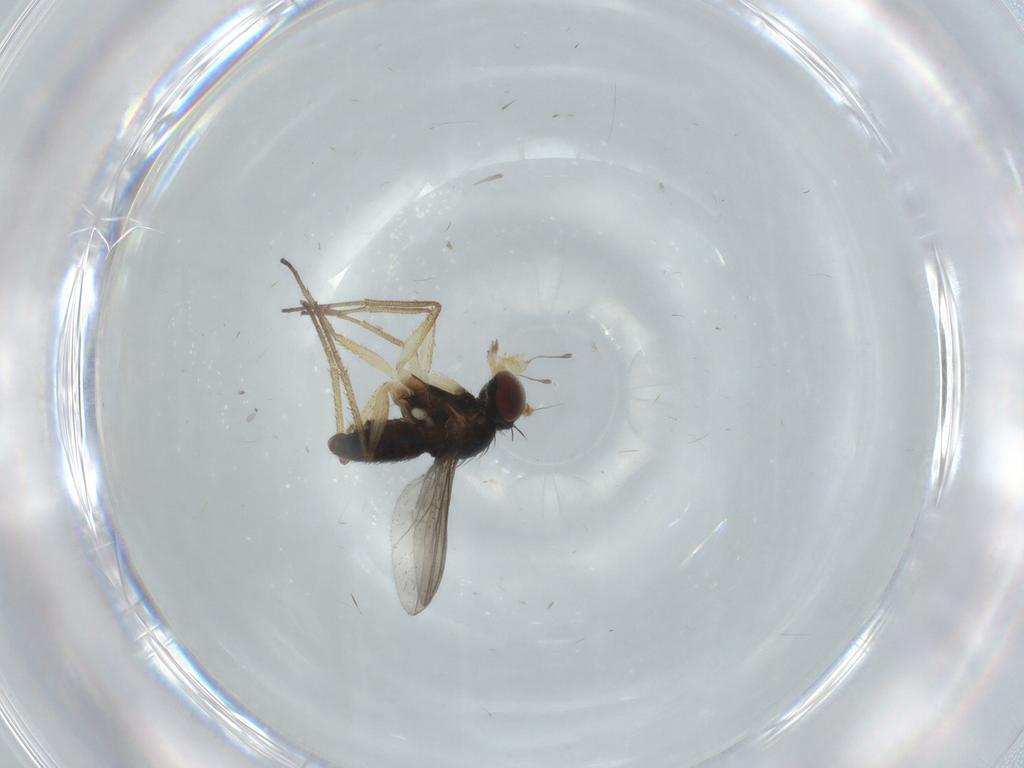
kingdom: Animalia
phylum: Arthropoda
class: Insecta
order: Diptera
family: Dolichopodidae
